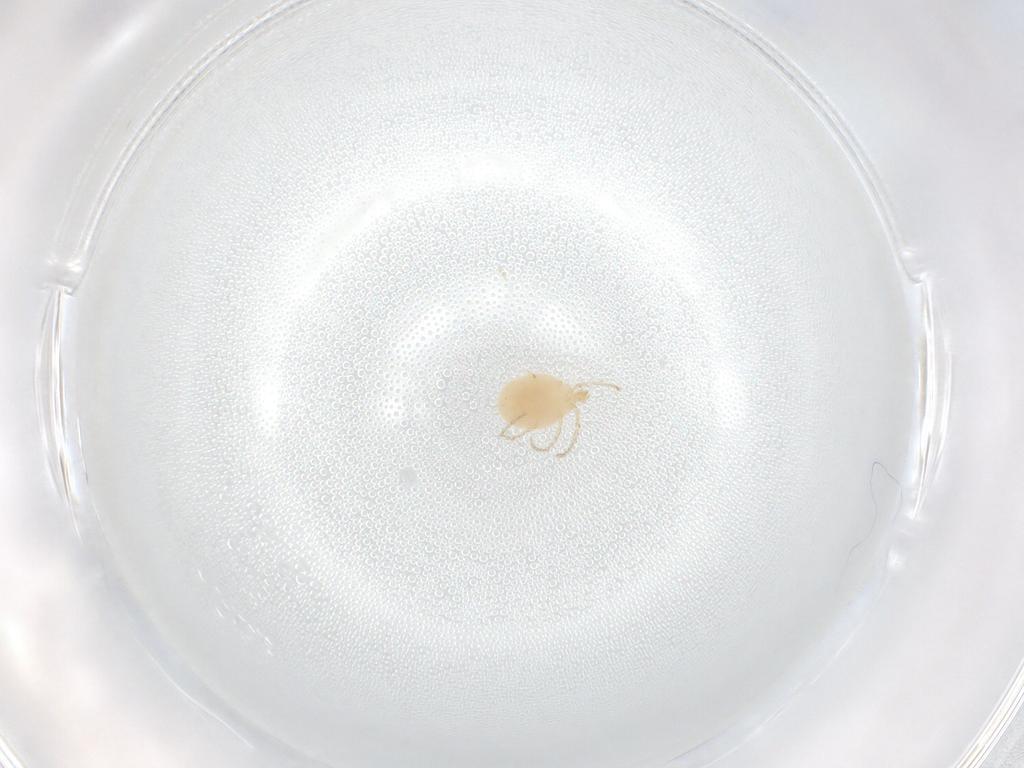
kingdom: Animalia
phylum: Arthropoda
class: Arachnida
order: Trombidiformes
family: Erythraeidae
